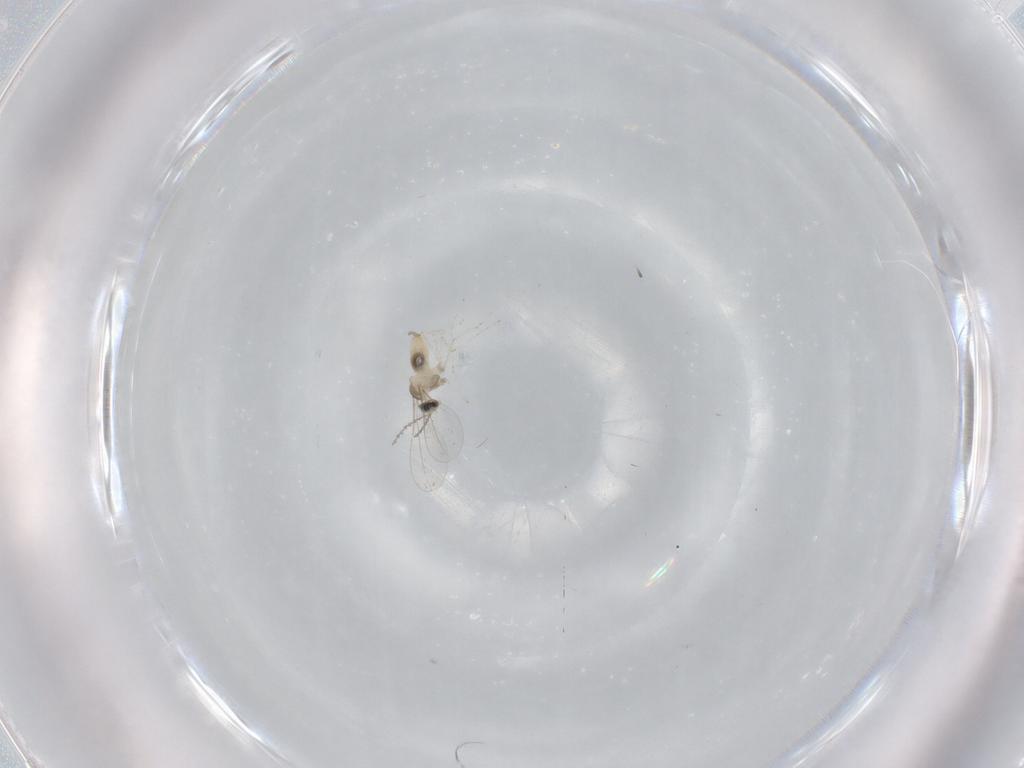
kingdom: Animalia
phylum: Arthropoda
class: Insecta
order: Diptera
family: Cecidomyiidae
